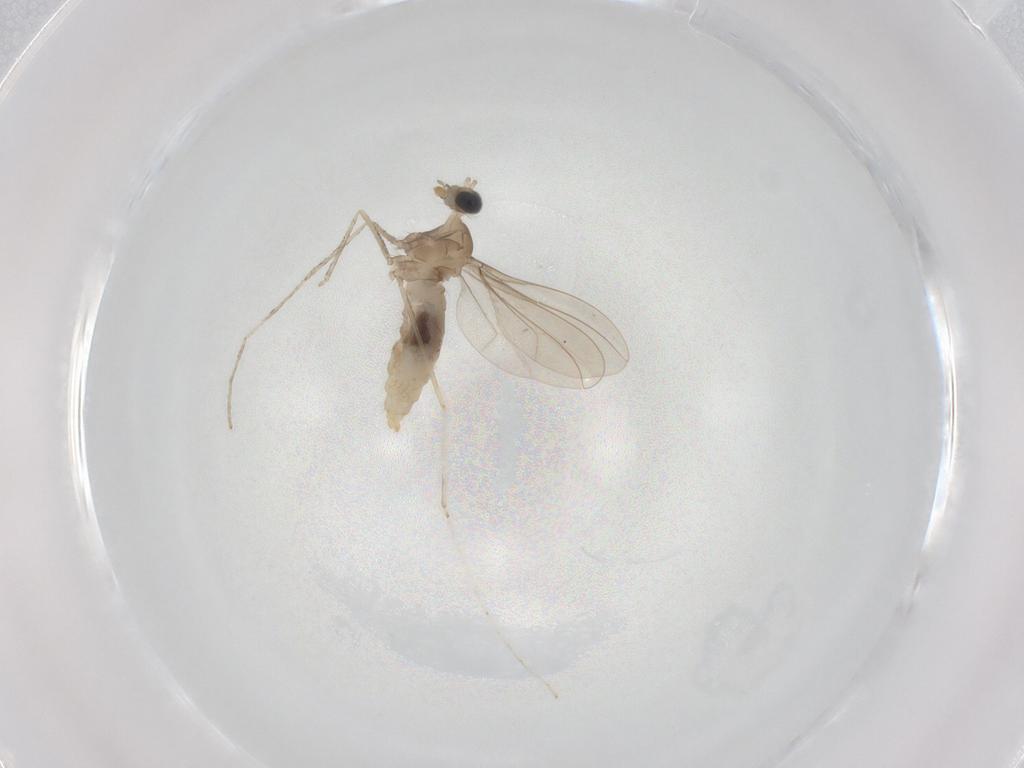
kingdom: Animalia
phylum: Arthropoda
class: Insecta
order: Diptera
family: Cecidomyiidae
